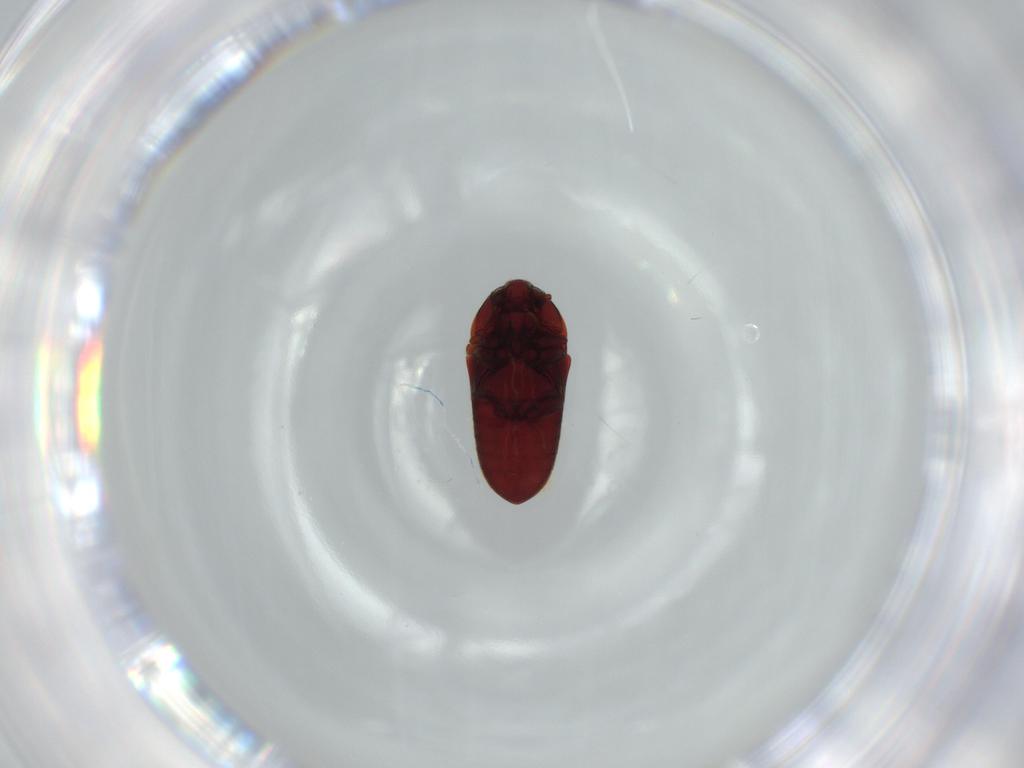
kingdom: Animalia
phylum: Arthropoda
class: Insecta
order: Coleoptera
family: Throscidae
